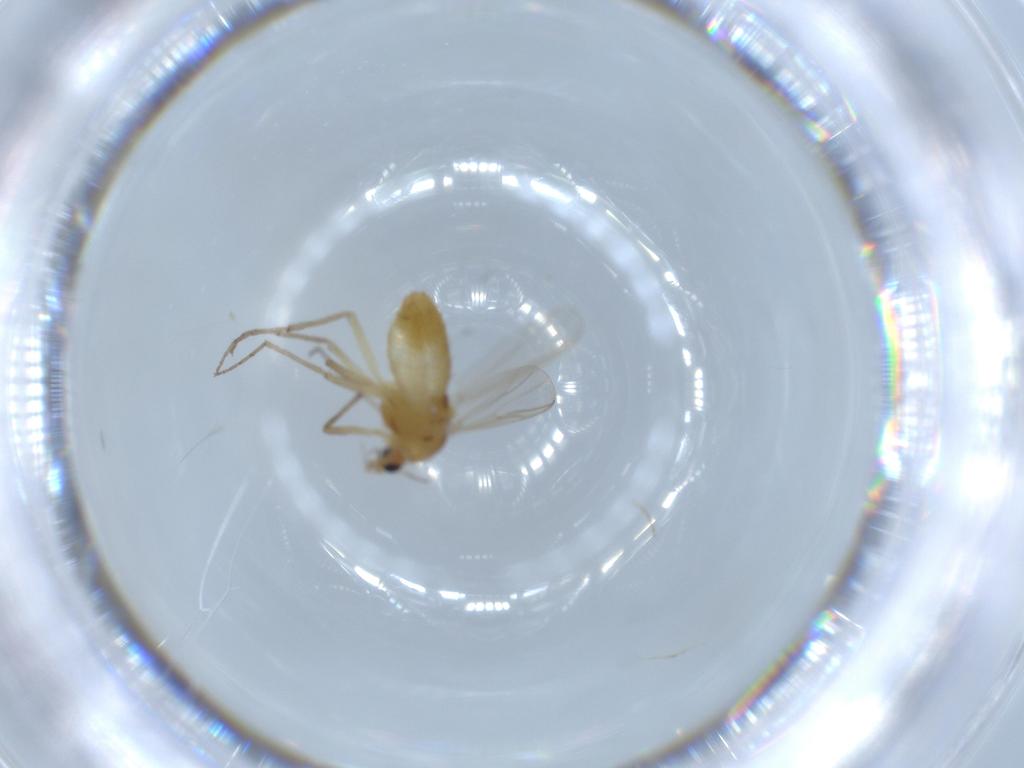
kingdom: Animalia
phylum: Arthropoda
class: Insecta
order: Diptera
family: Chironomidae
